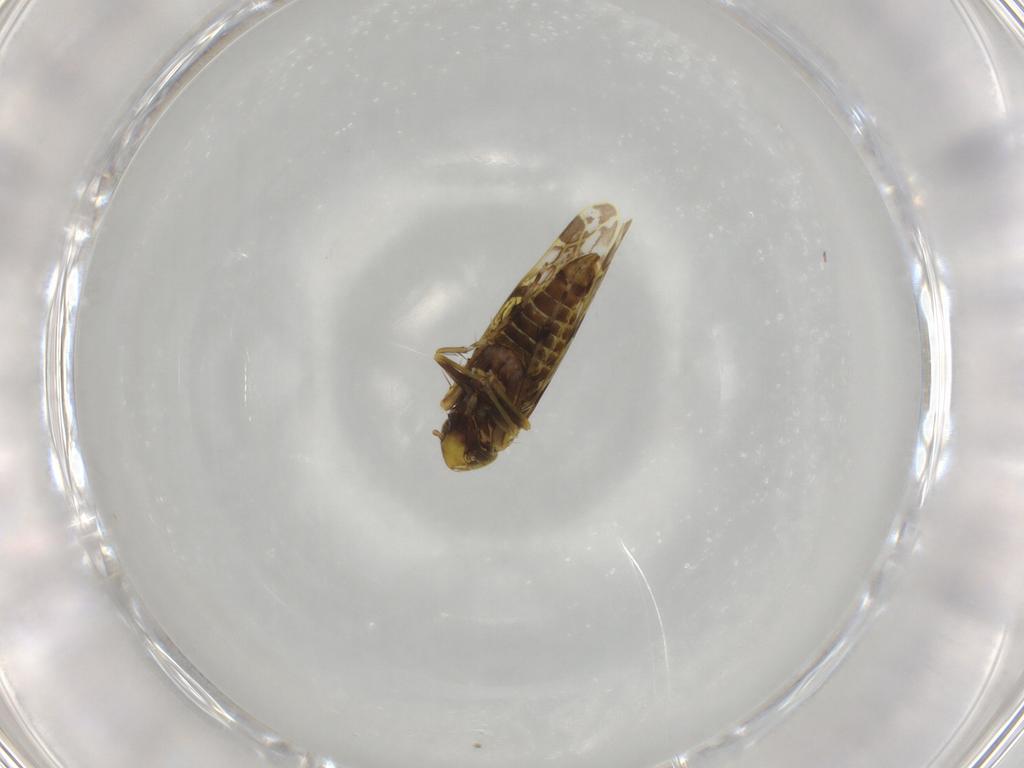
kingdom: Animalia
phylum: Arthropoda
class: Insecta
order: Hemiptera
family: Cicadellidae
